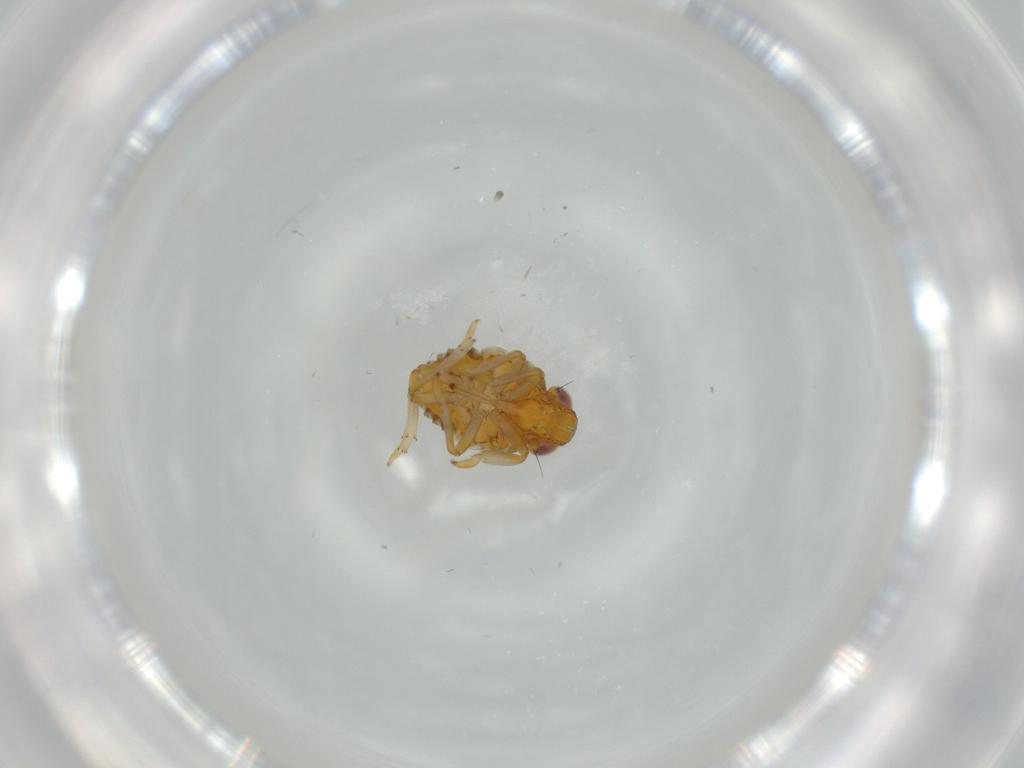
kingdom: Animalia
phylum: Arthropoda
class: Insecta
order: Hemiptera
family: Issidae
